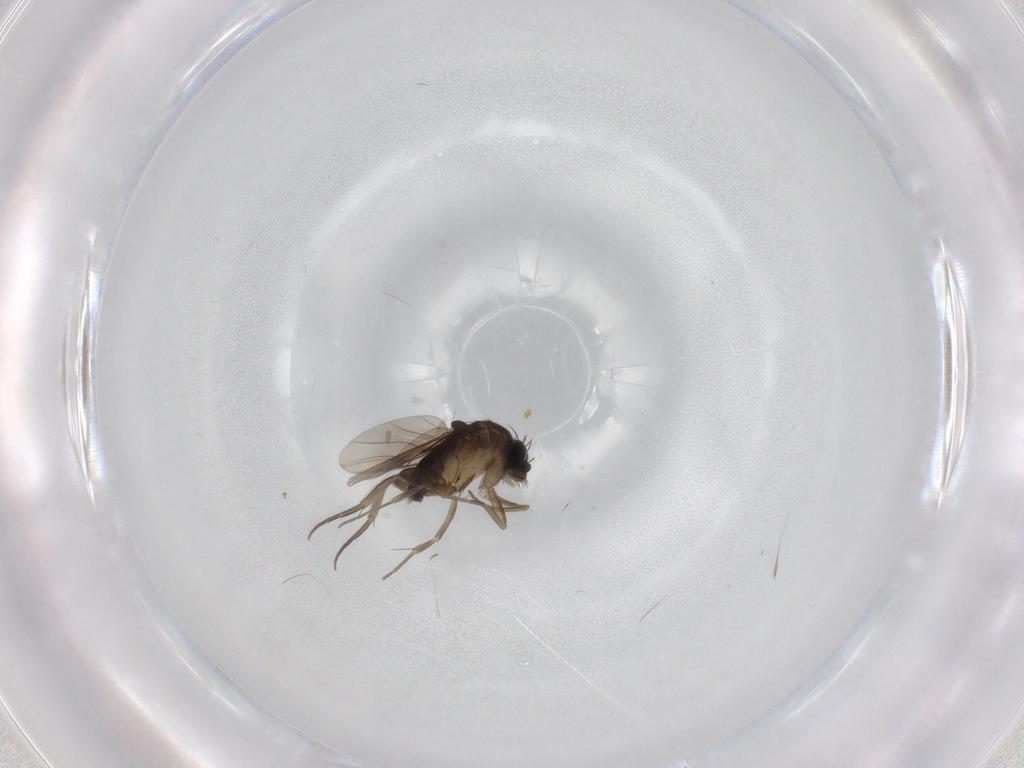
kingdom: Animalia
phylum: Arthropoda
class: Insecta
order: Diptera
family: Phoridae
